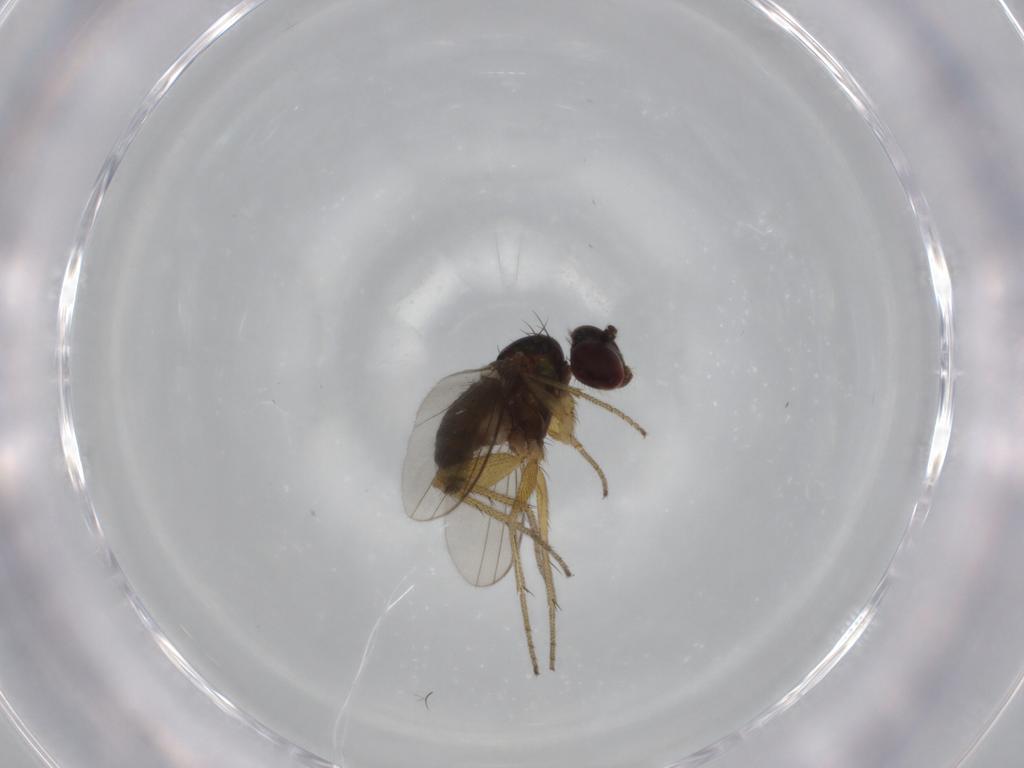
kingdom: Animalia
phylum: Arthropoda
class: Insecta
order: Diptera
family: Dolichopodidae
